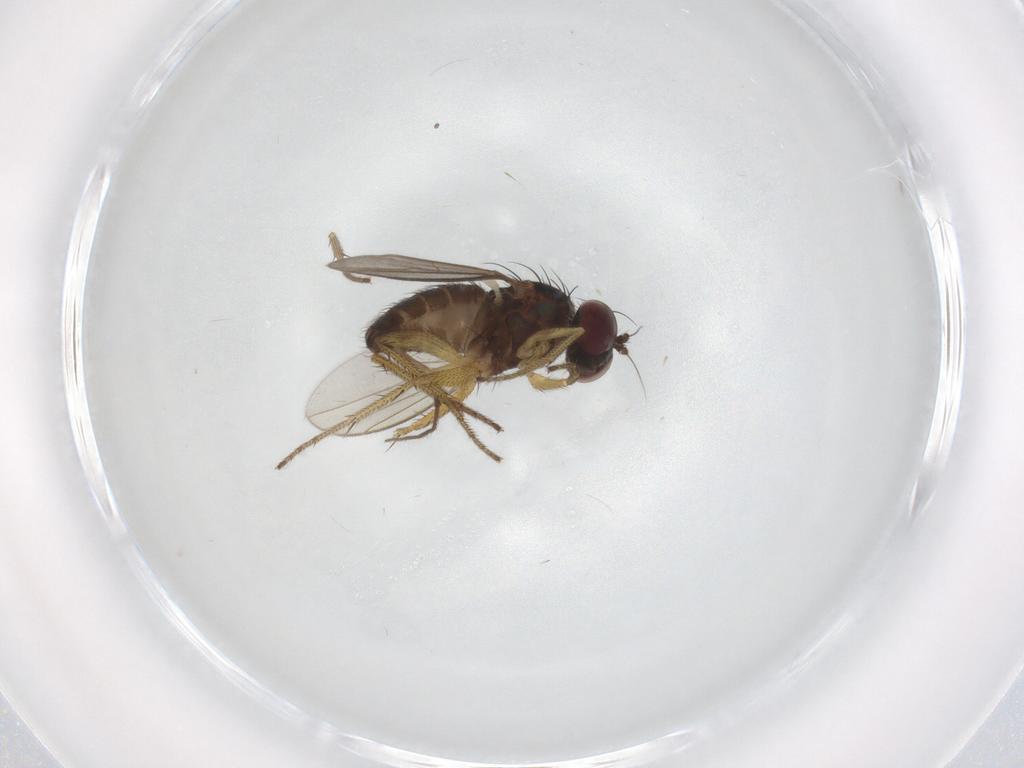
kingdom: Animalia
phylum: Arthropoda
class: Insecta
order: Diptera
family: Dolichopodidae
